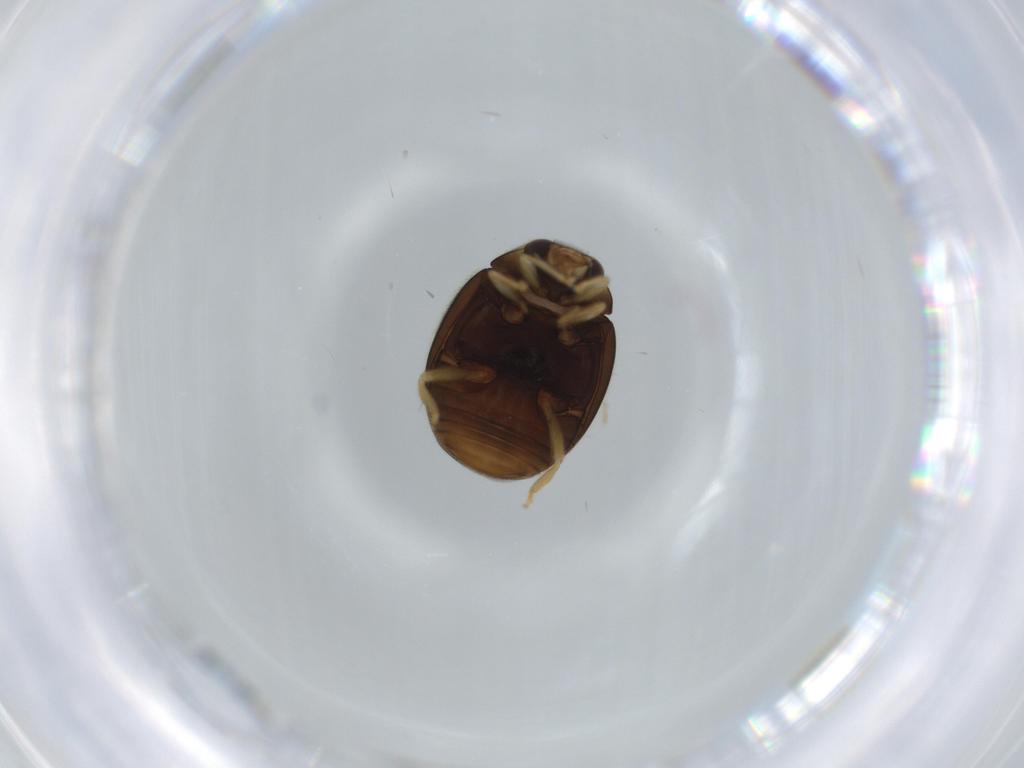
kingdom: Animalia
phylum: Arthropoda
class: Insecta
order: Coleoptera
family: Coccinellidae
